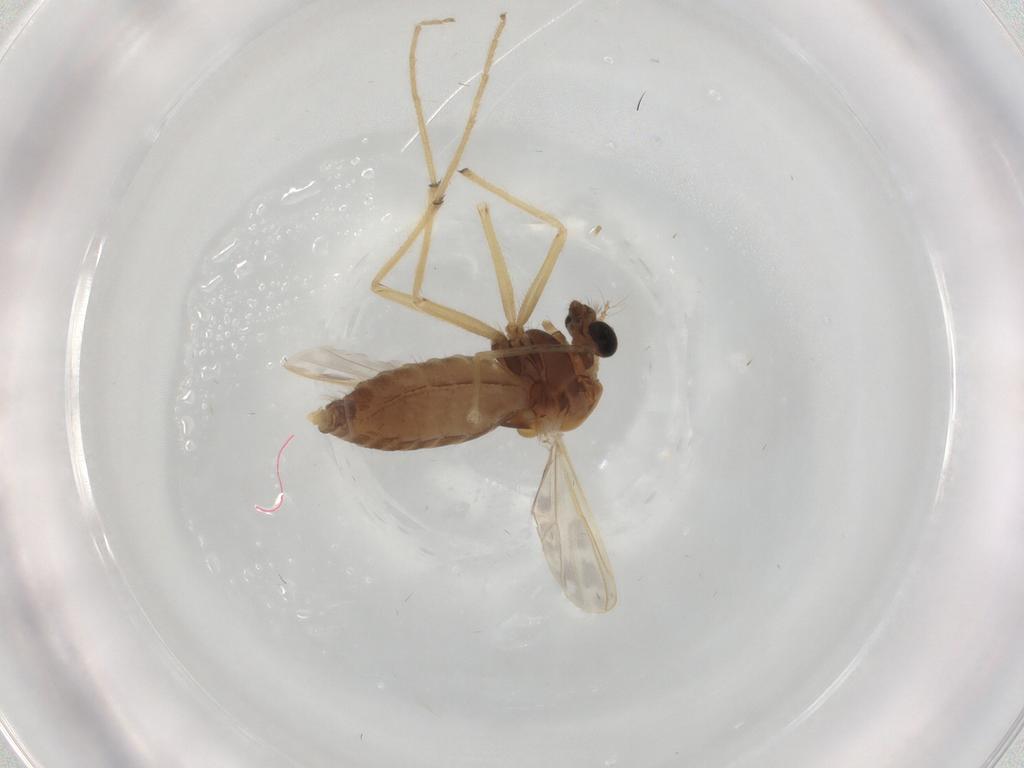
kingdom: Animalia
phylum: Arthropoda
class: Insecta
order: Diptera
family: Chironomidae
